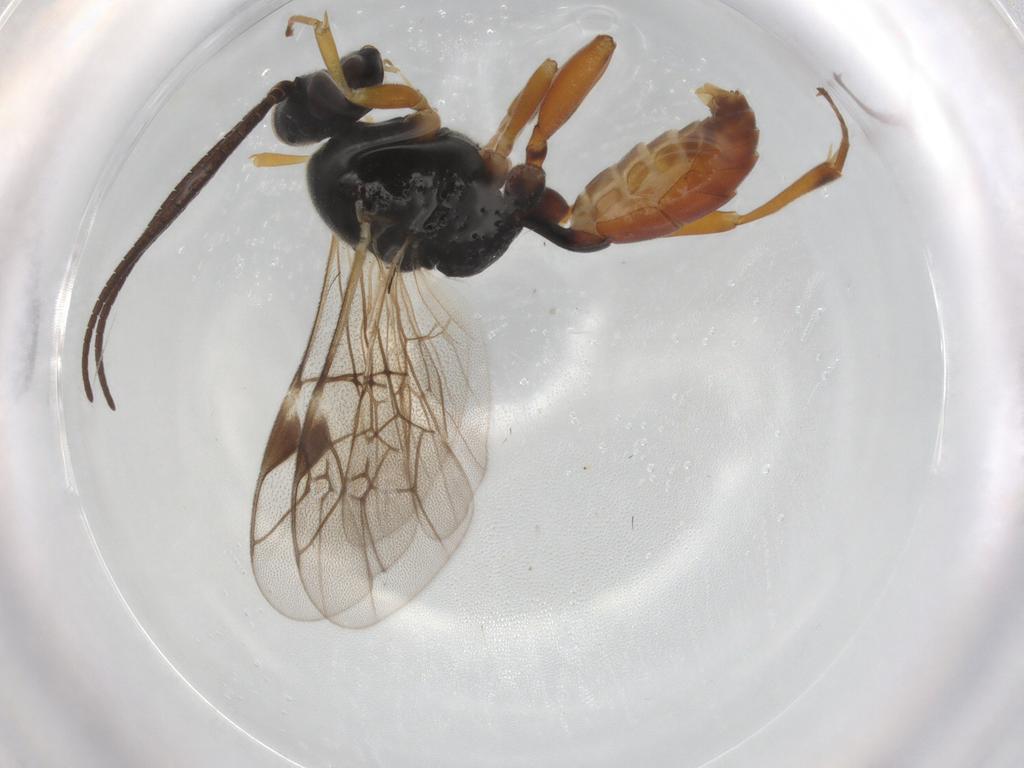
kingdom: Animalia
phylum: Arthropoda
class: Insecta
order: Hymenoptera
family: Ichneumonidae
